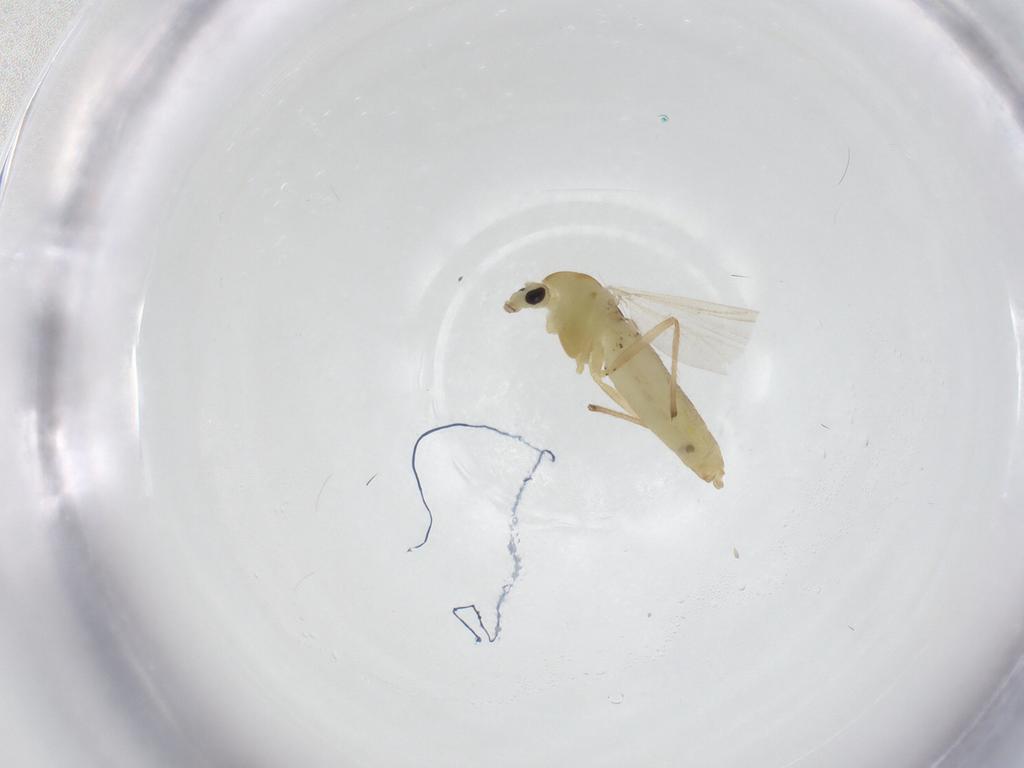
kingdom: Animalia
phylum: Arthropoda
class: Insecta
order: Diptera
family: Chironomidae
